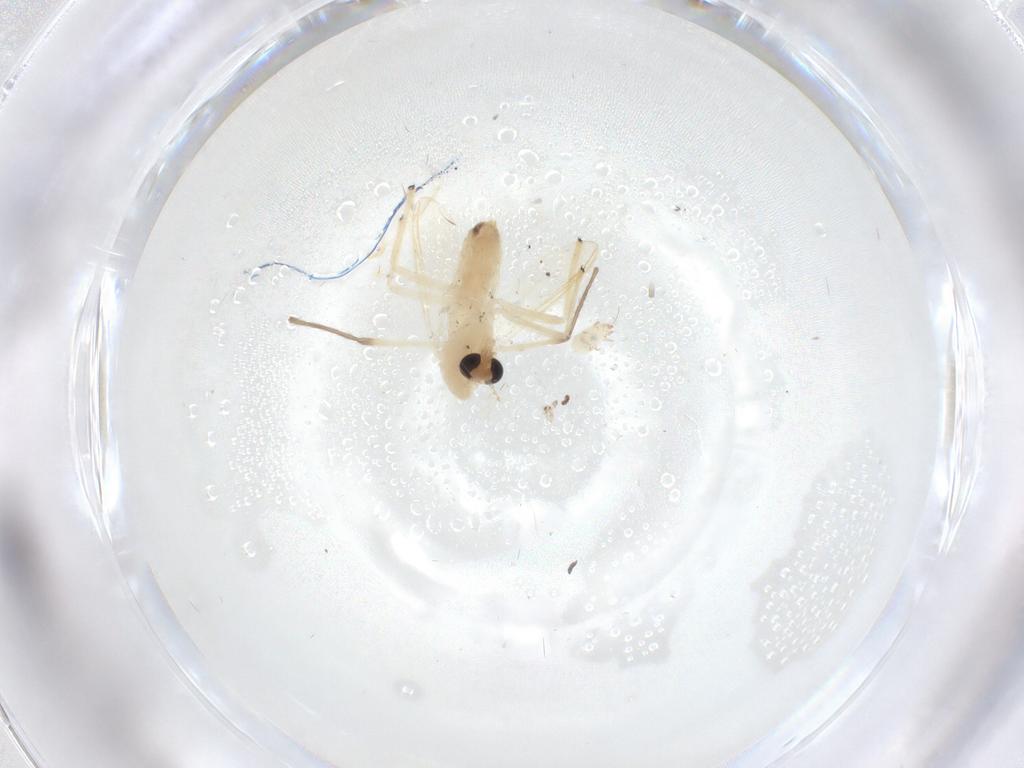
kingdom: Animalia
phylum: Arthropoda
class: Insecta
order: Diptera
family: Chironomidae
